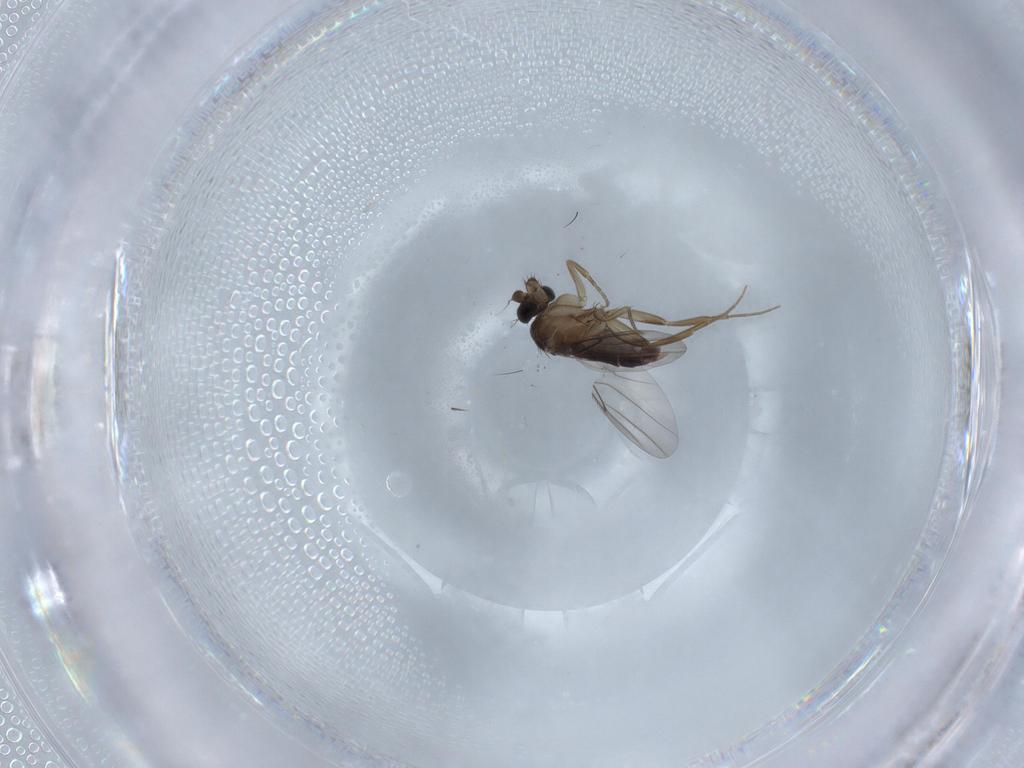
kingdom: Animalia
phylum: Arthropoda
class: Insecta
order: Diptera
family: Phoridae
